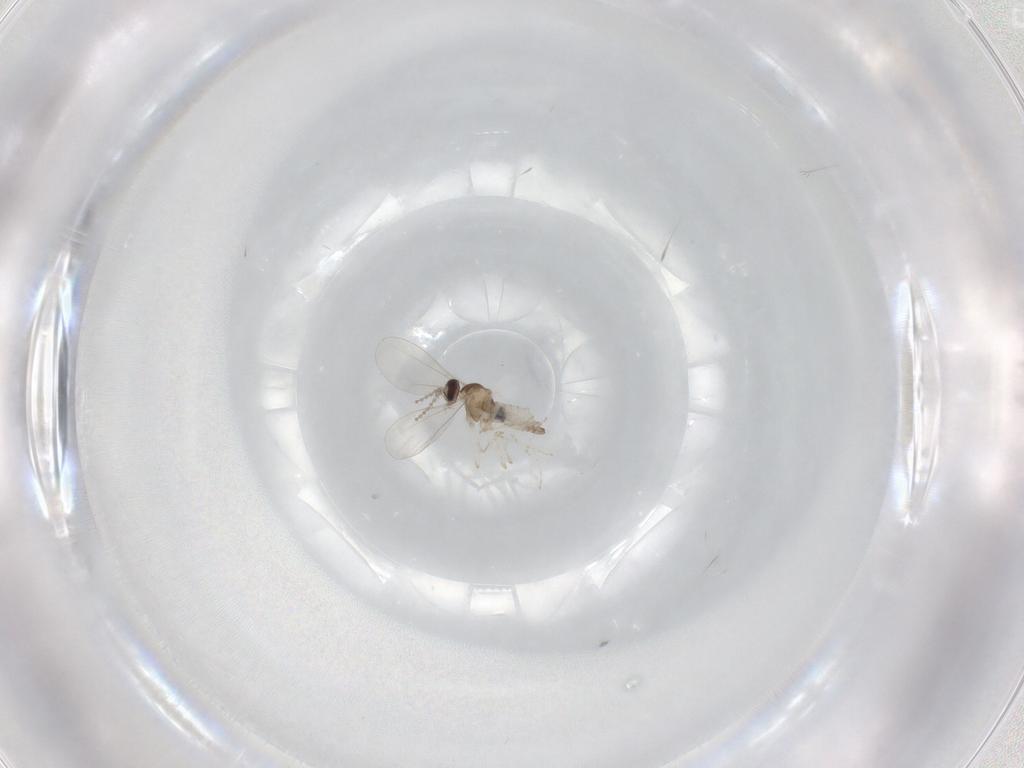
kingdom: Animalia
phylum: Arthropoda
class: Insecta
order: Diptera
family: Cecidomyiidae
